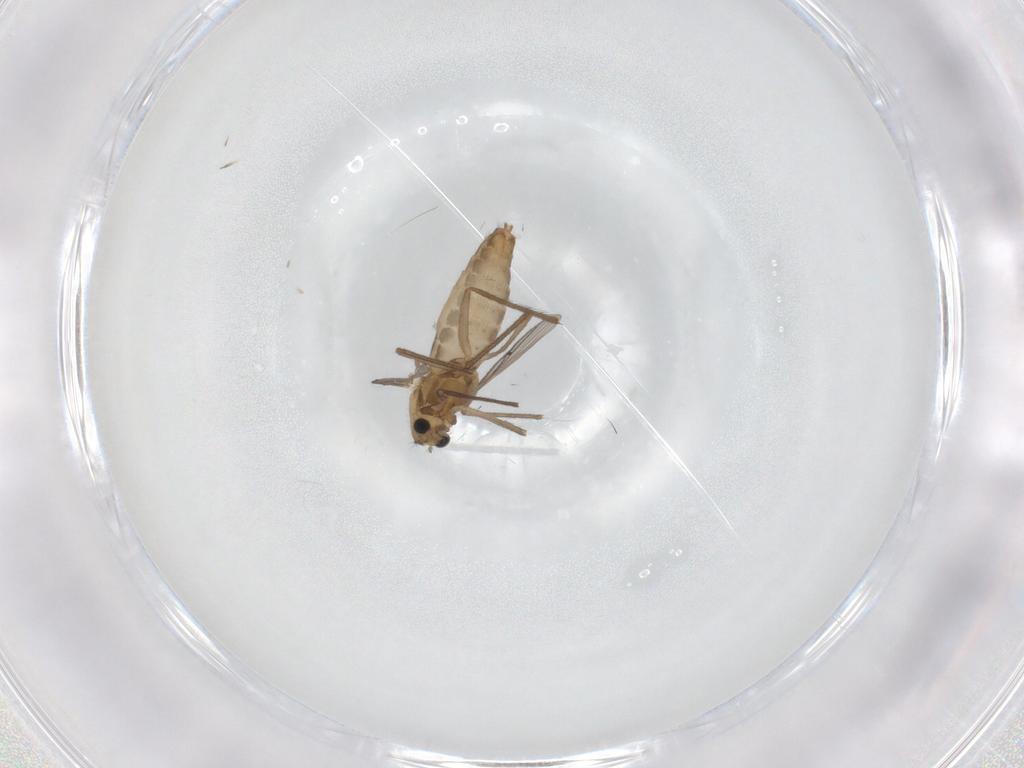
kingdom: Animalia
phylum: Arthropoda
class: Insecta
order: Diptera
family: Chironomidae
